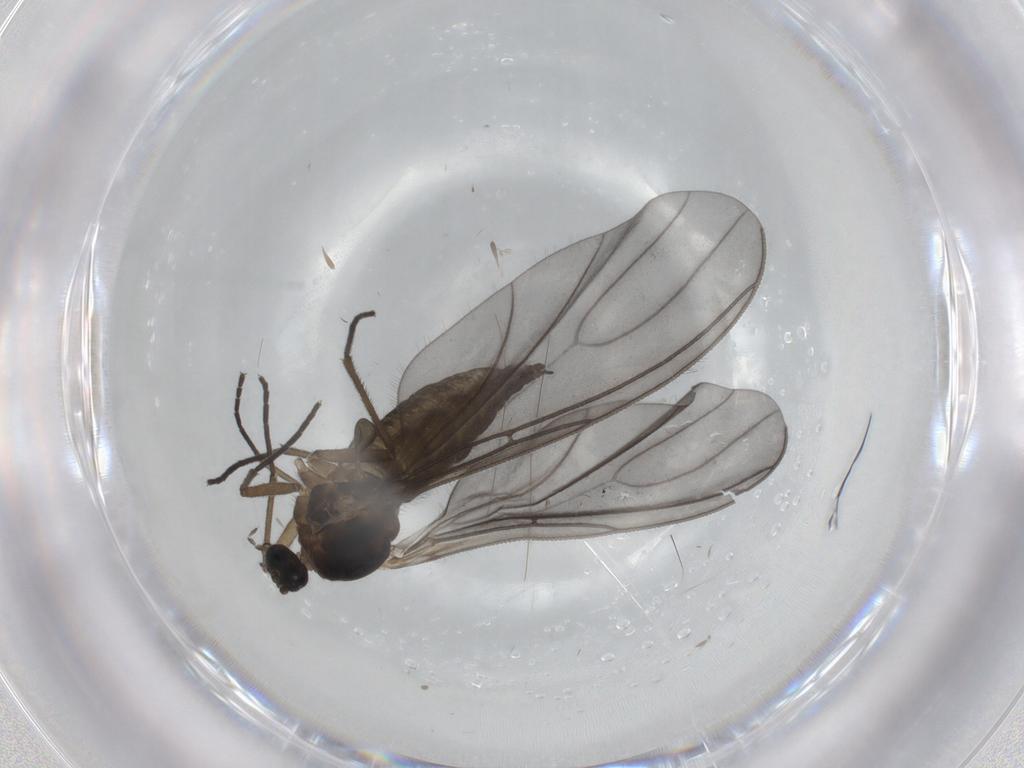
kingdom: Animalia
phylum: Arthropoda
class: Insecta
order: Diptera
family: Sciaridae
